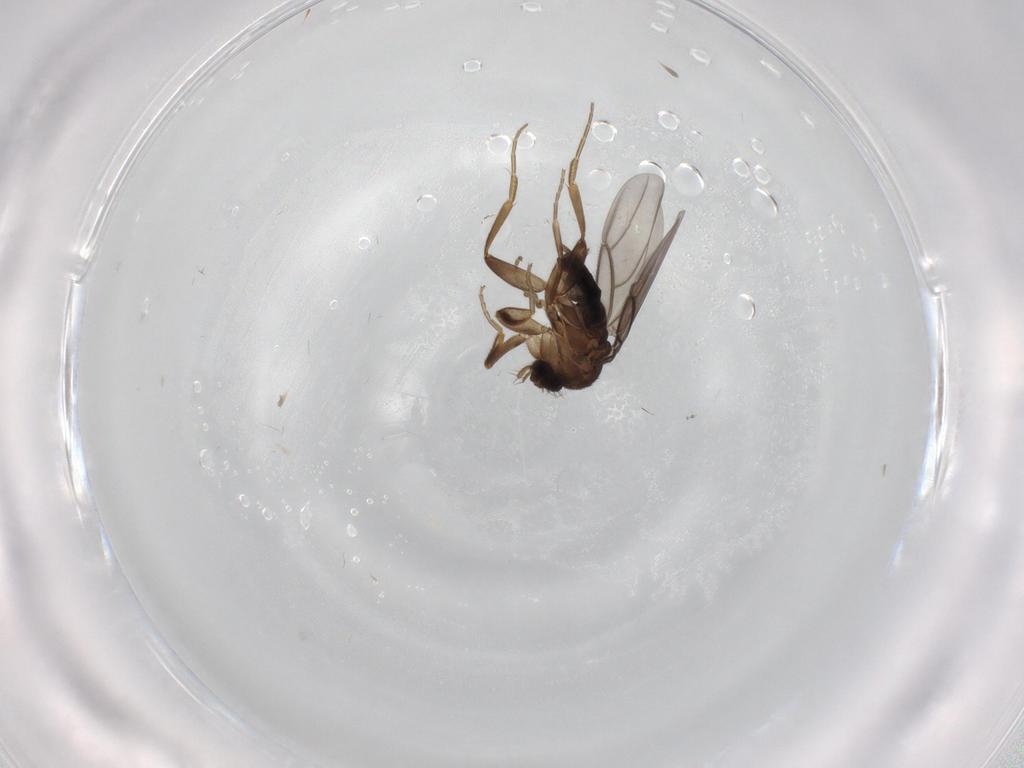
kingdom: Animalia
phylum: Arthropoda
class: Insecta
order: Diptera
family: Phoridae
